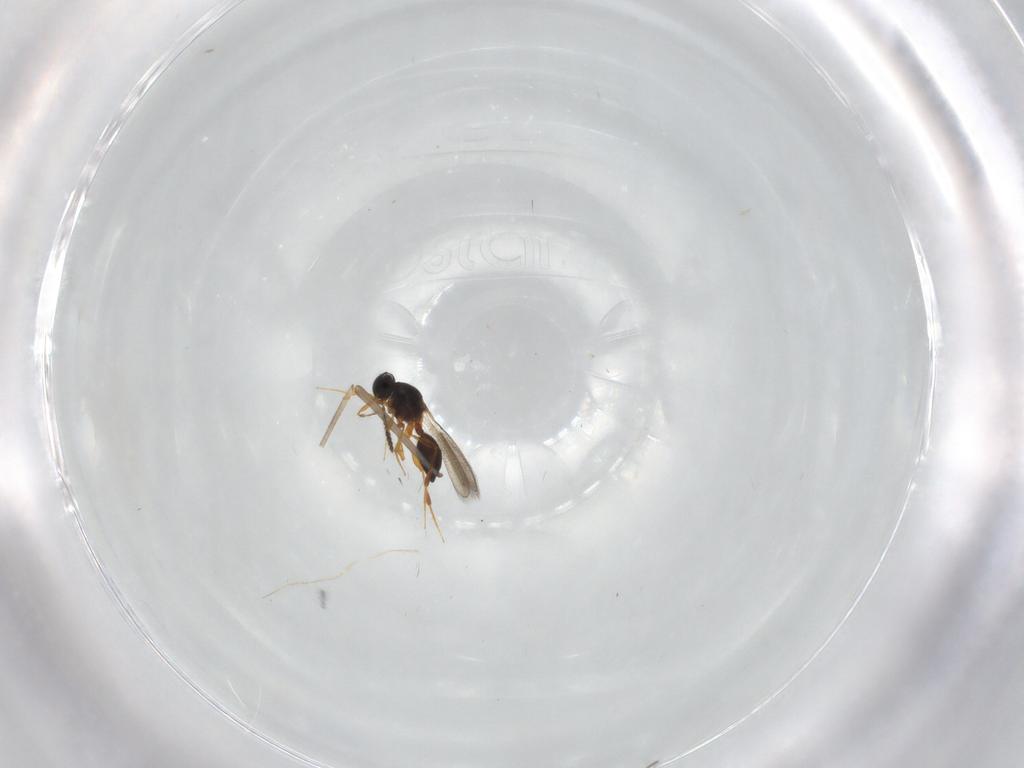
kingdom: Animalia
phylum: Arthropoda
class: Insecta
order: Hymenoptera
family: Platygastridae
